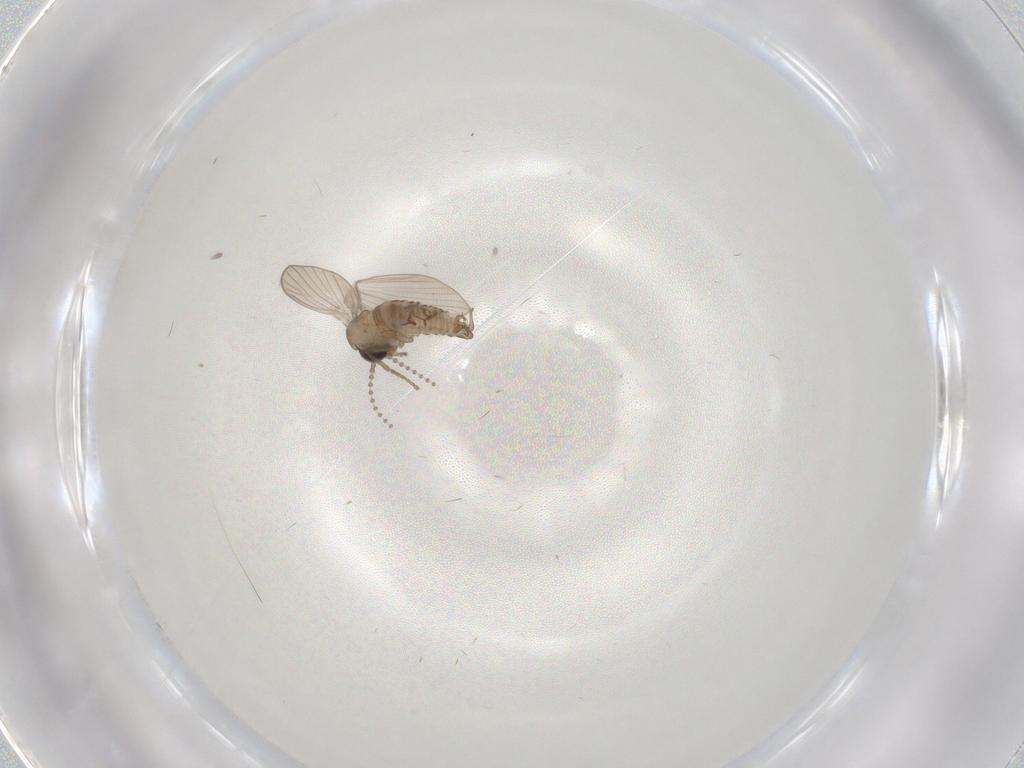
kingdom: Animalia
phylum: Arthropoda
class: Insecta
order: Diptera
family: Psychodidae
